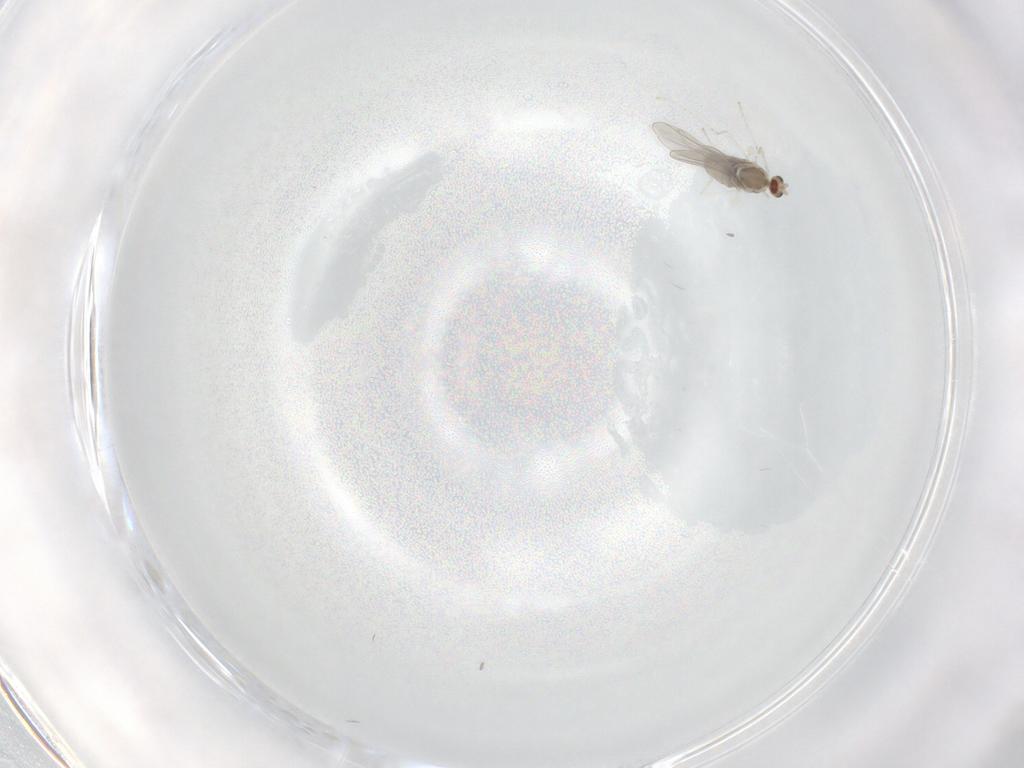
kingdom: Animalia
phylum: Arthropoda
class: Insecta
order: Diptera
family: Cecidomyiidae
